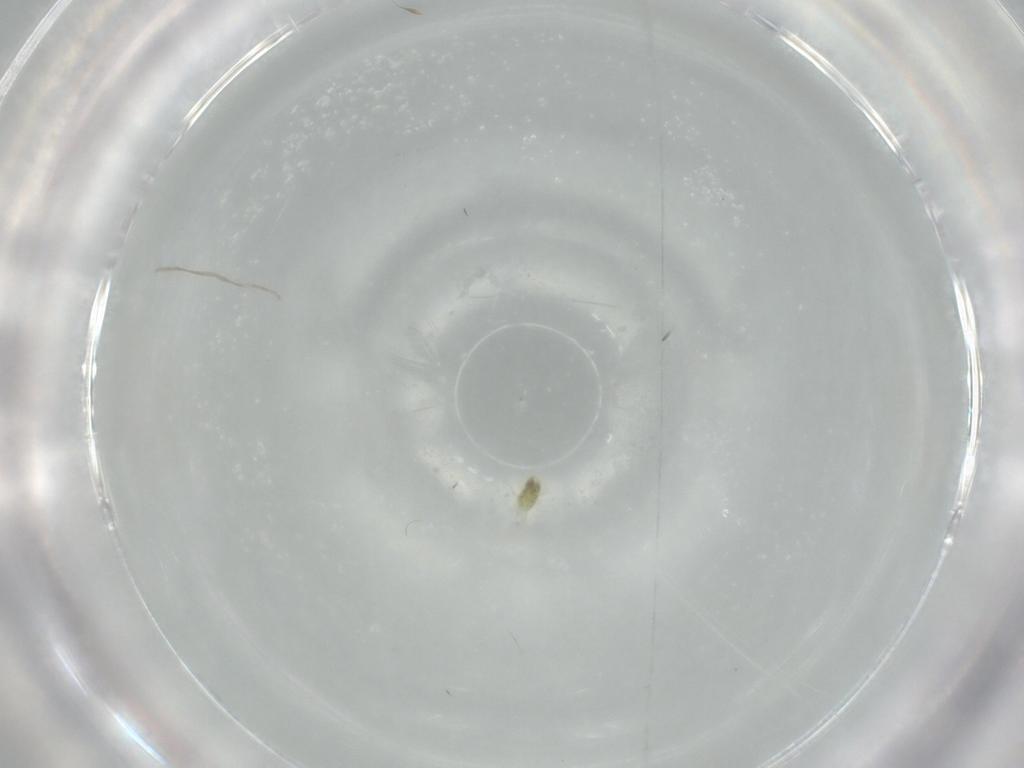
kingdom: Animalia
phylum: Arthropoda
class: Arachnida
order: Trombidiformes
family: Eupodidae
